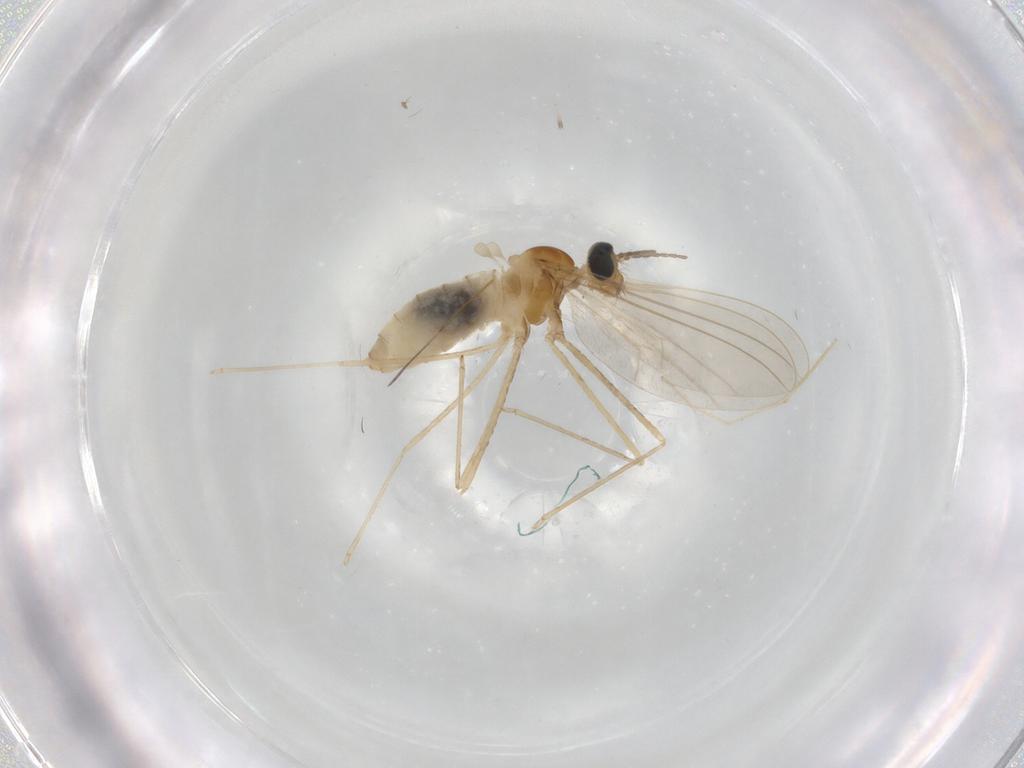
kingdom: Animalia
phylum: Arthropoda
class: Insecta
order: Diptera
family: Cecidomyiidae
